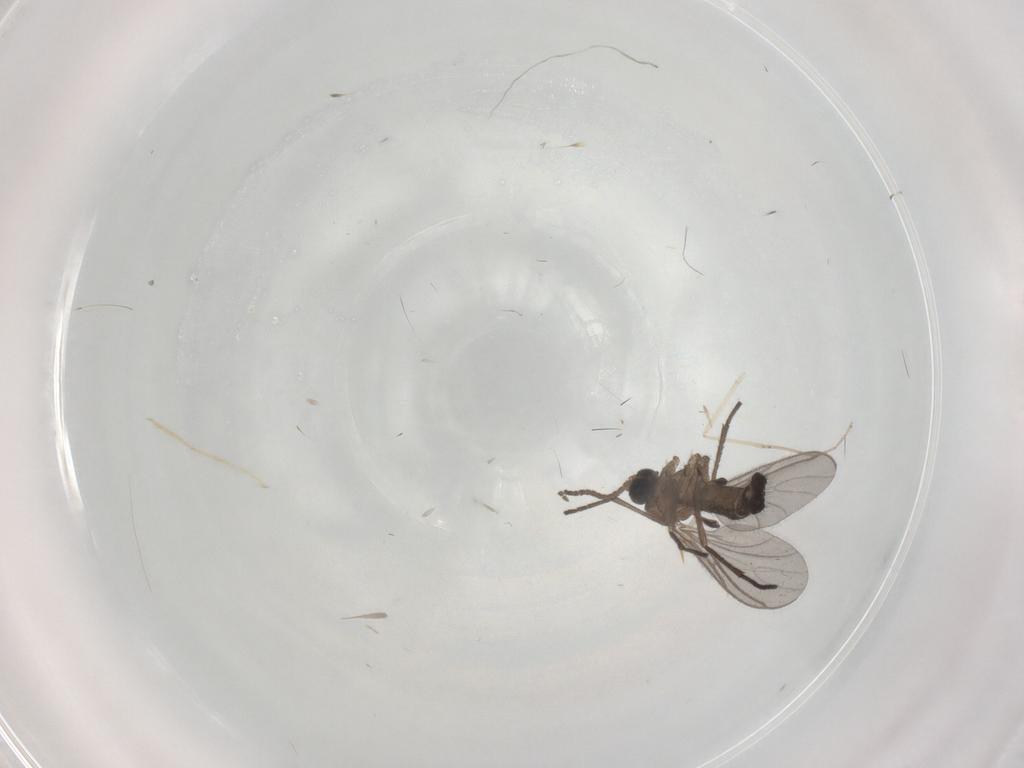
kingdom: Animalia
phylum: Arthropoda
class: Insecta
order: Diptera
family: Sciaridae
